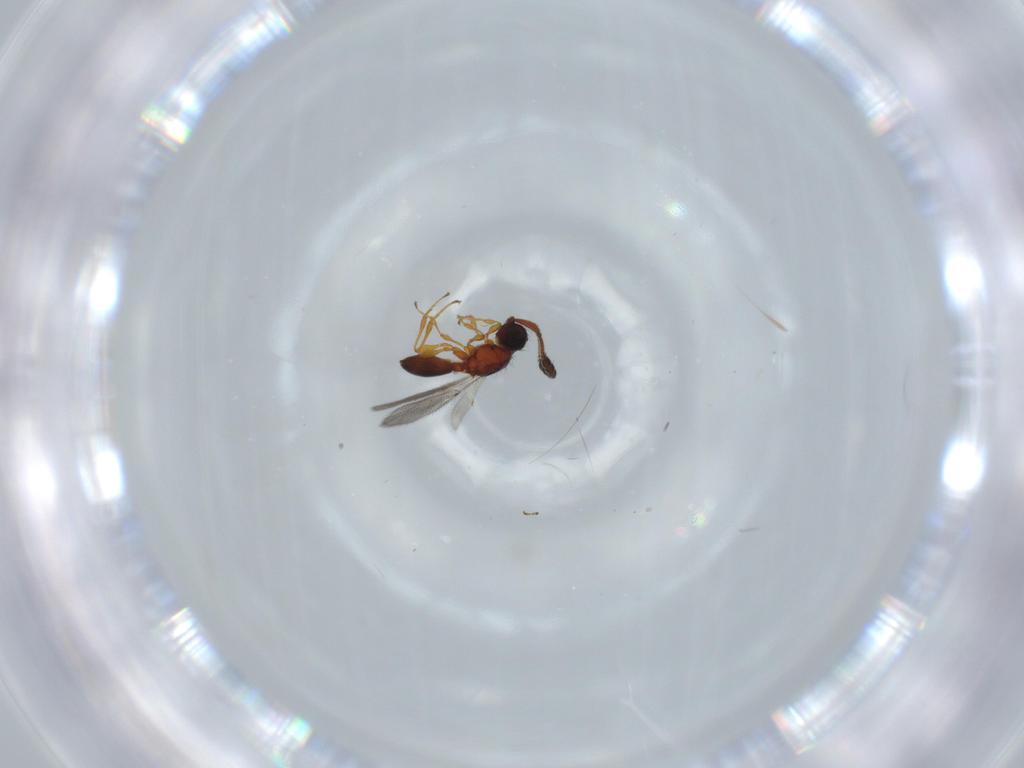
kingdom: Animalia
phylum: Arthropoda
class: Insecta
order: Hymenoptera
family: Diapriidae
